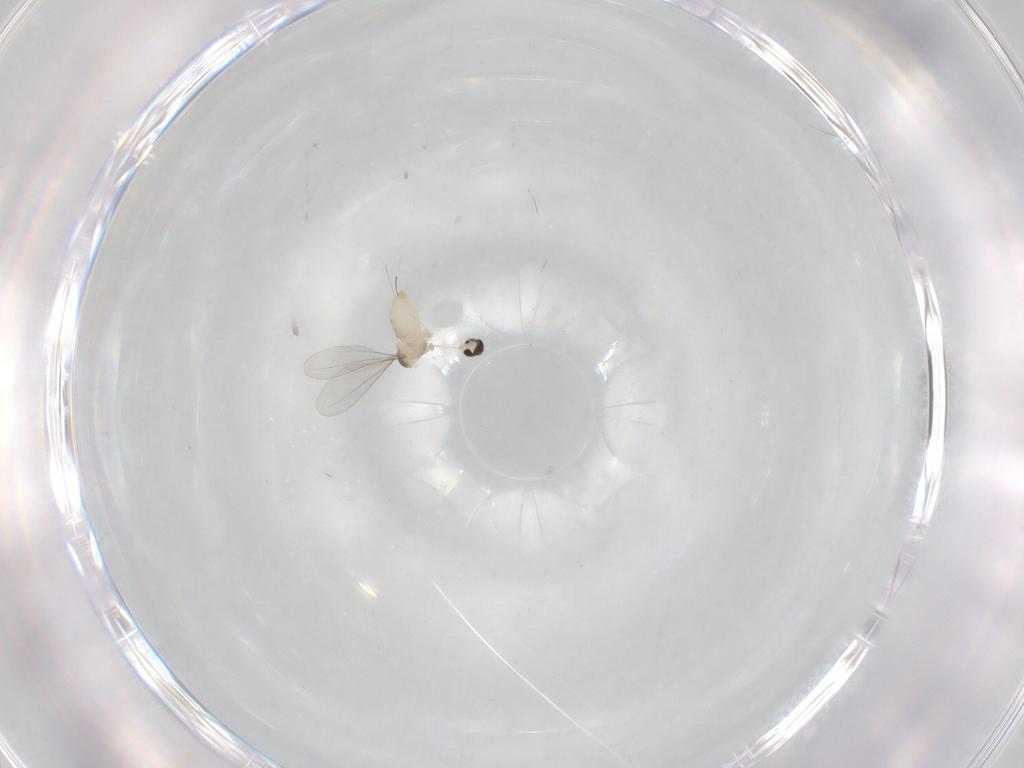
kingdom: Animalia
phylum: Arthropoda
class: Insecta
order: Diptera
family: Cecidomyiidae
